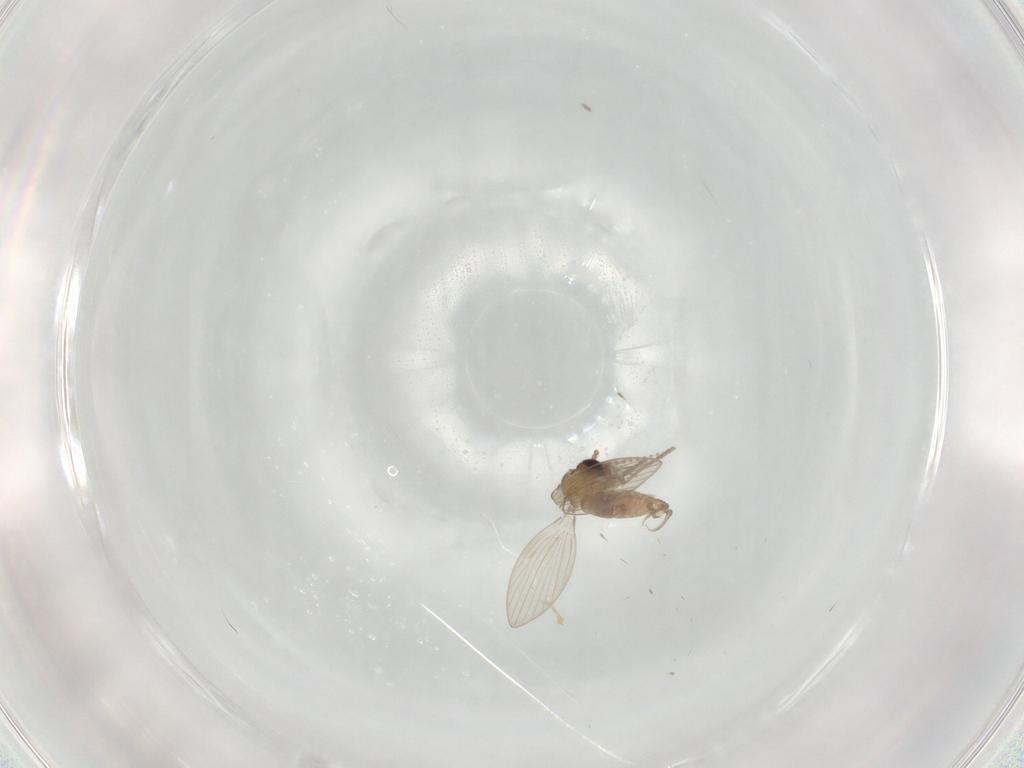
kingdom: Animalia
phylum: Arthropoda
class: Insecta
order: Diptera
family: Psychodidae
